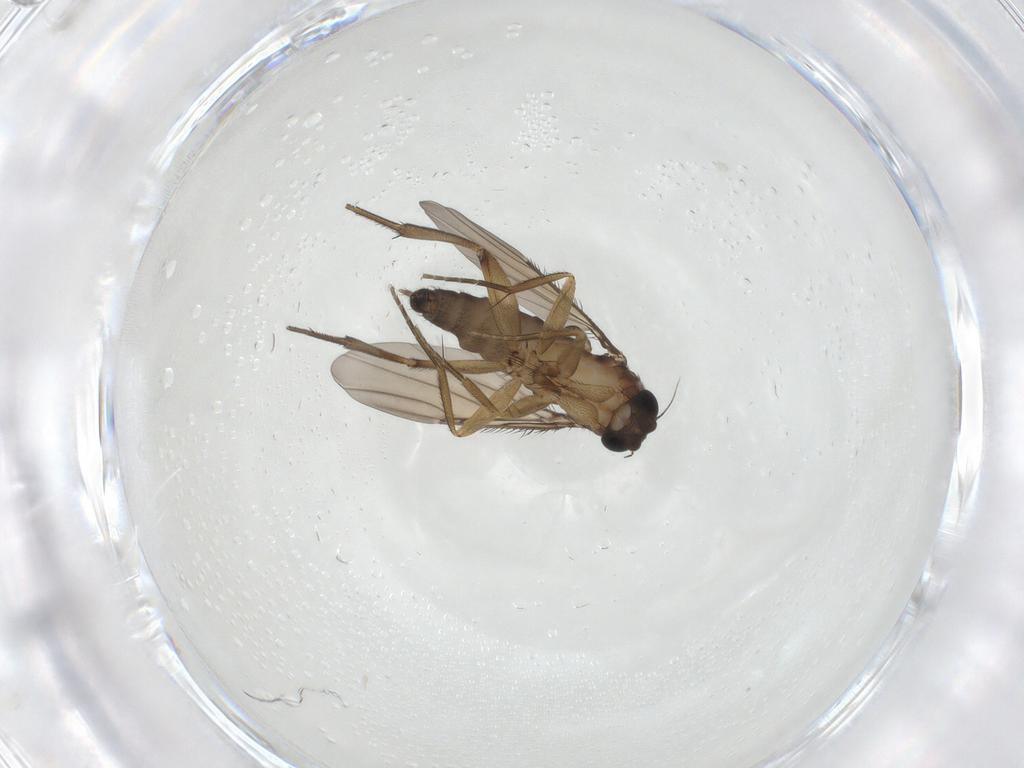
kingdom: Animalia
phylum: Arthropoda
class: Insecta
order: Diptera
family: Phoridae
